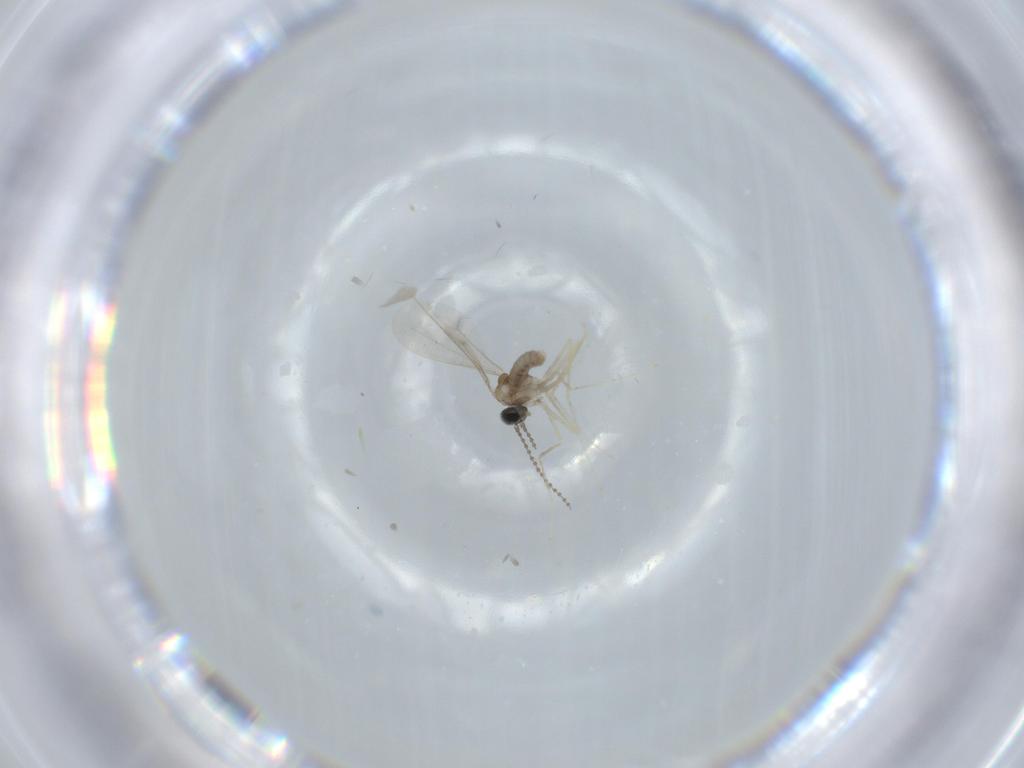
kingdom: Animalia
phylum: Arthropoda
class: Insecta
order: Diptera
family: Cecidomyiidae
